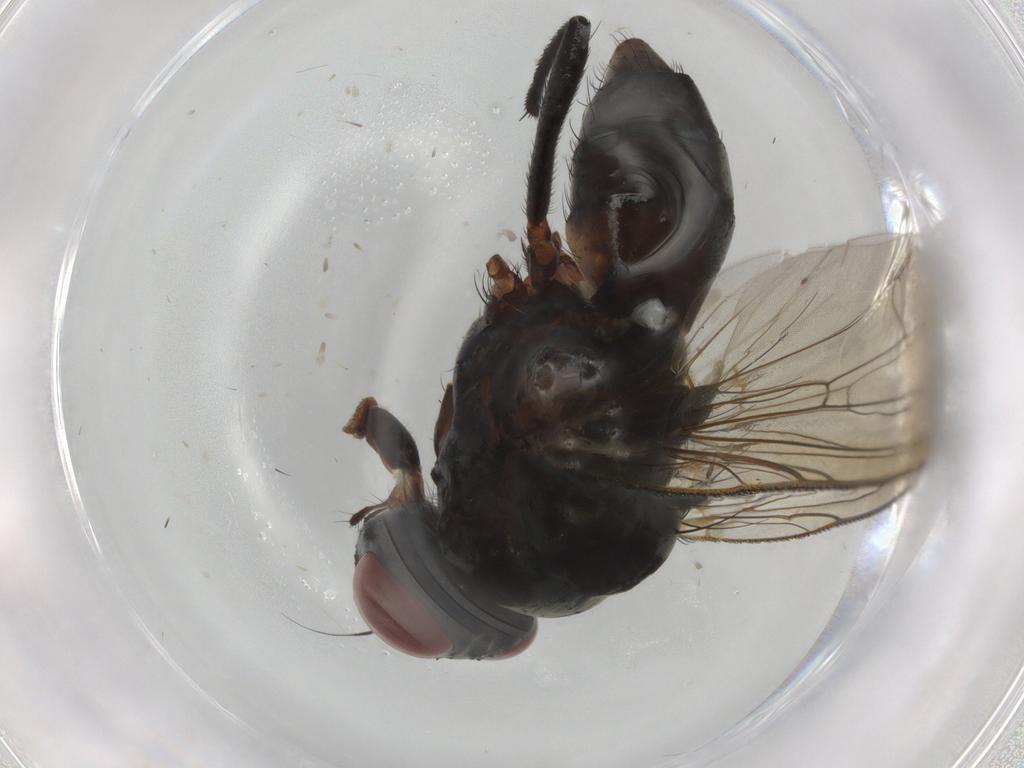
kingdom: Animalia
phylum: Arthropoda
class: Insecta
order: Diptera
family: Anthomyiidae
